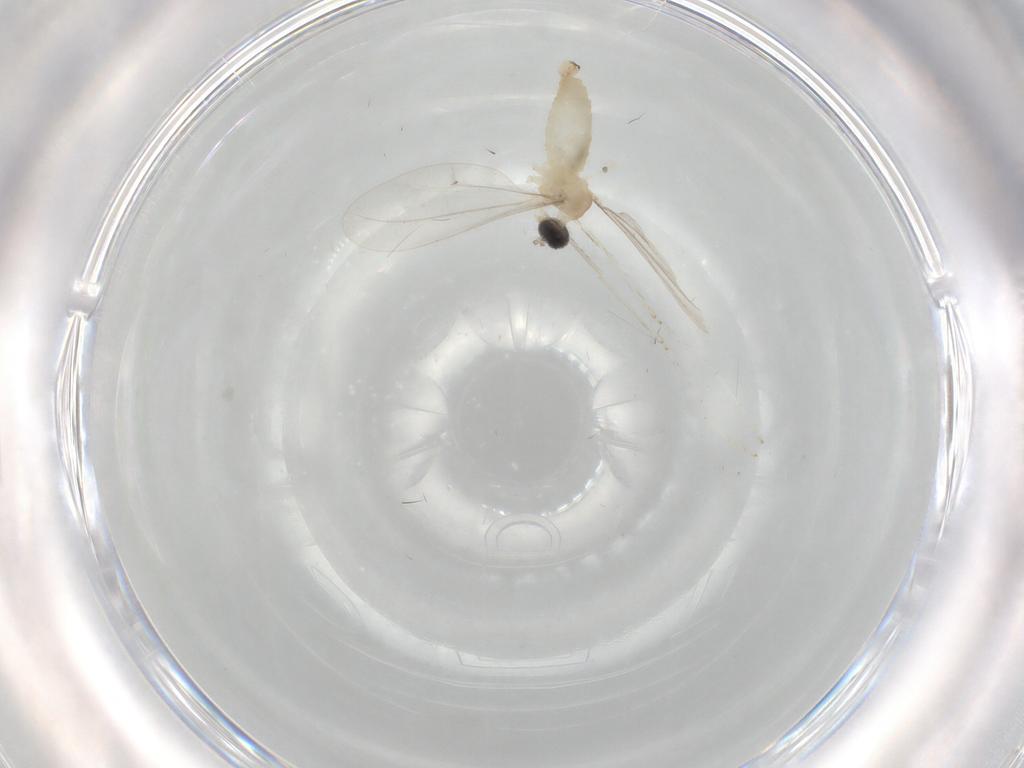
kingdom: Animalia
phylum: Arthropoda
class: Insecta
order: Diptera
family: Cecidomyiidae
